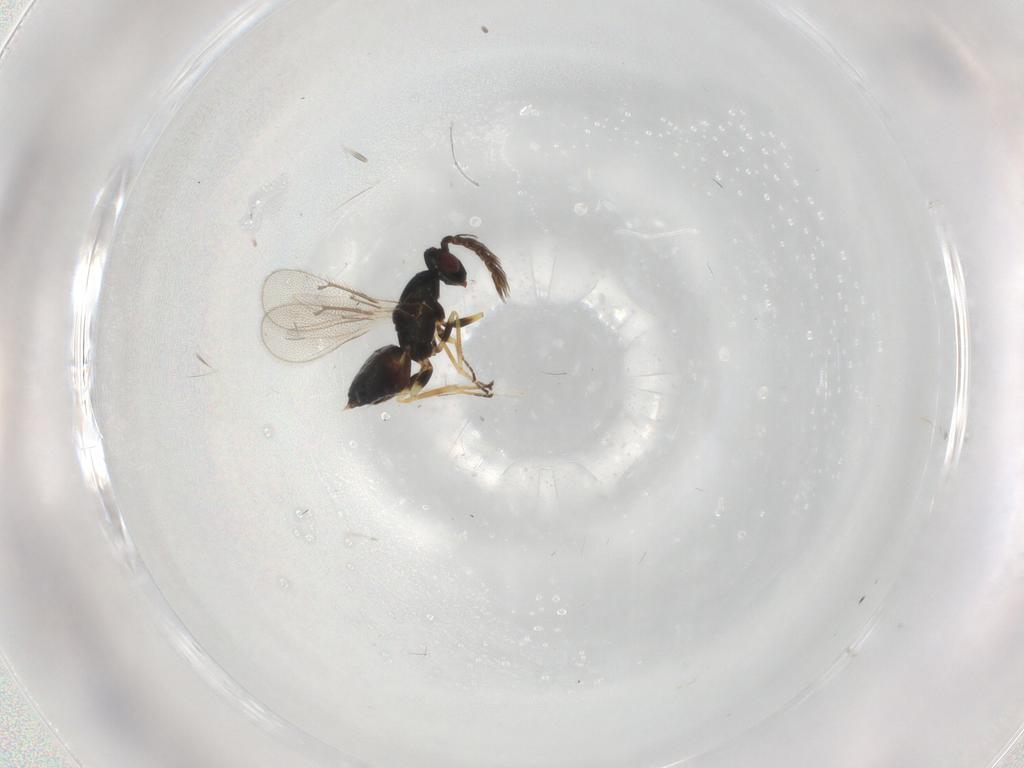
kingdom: Animalia
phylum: Arthropoda
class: Insecta
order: Hymenoptera
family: Eulophidae
